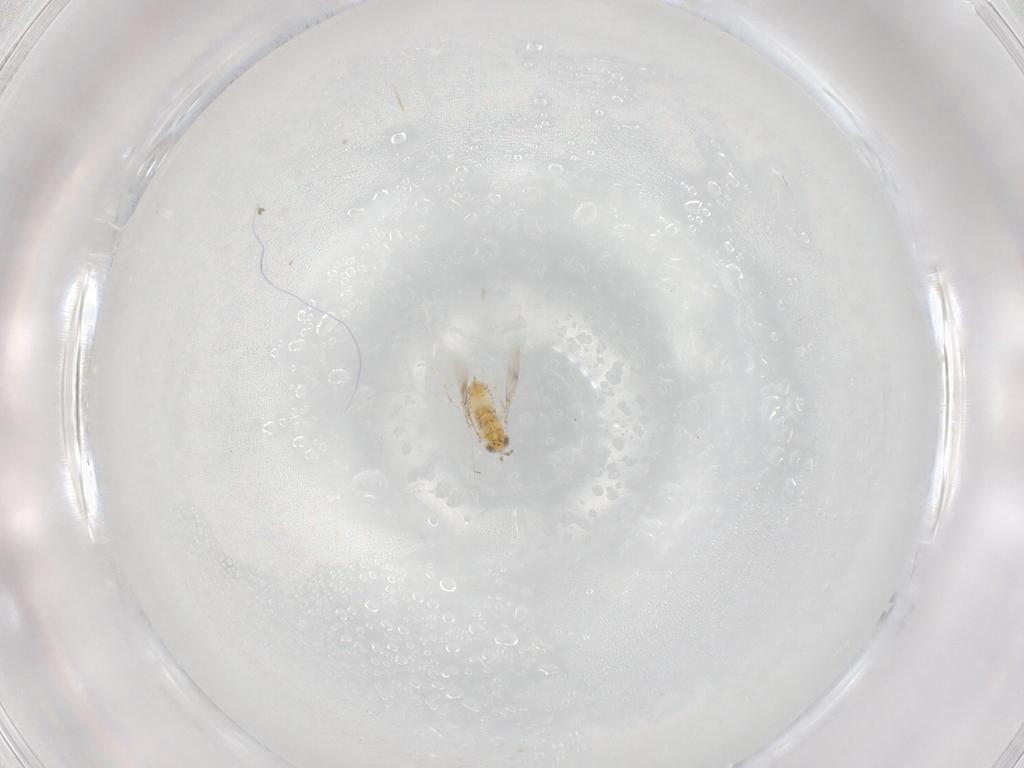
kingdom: Animalia
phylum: Arthropoda
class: Insecta
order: Hymenoptera
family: Aphelinidae
